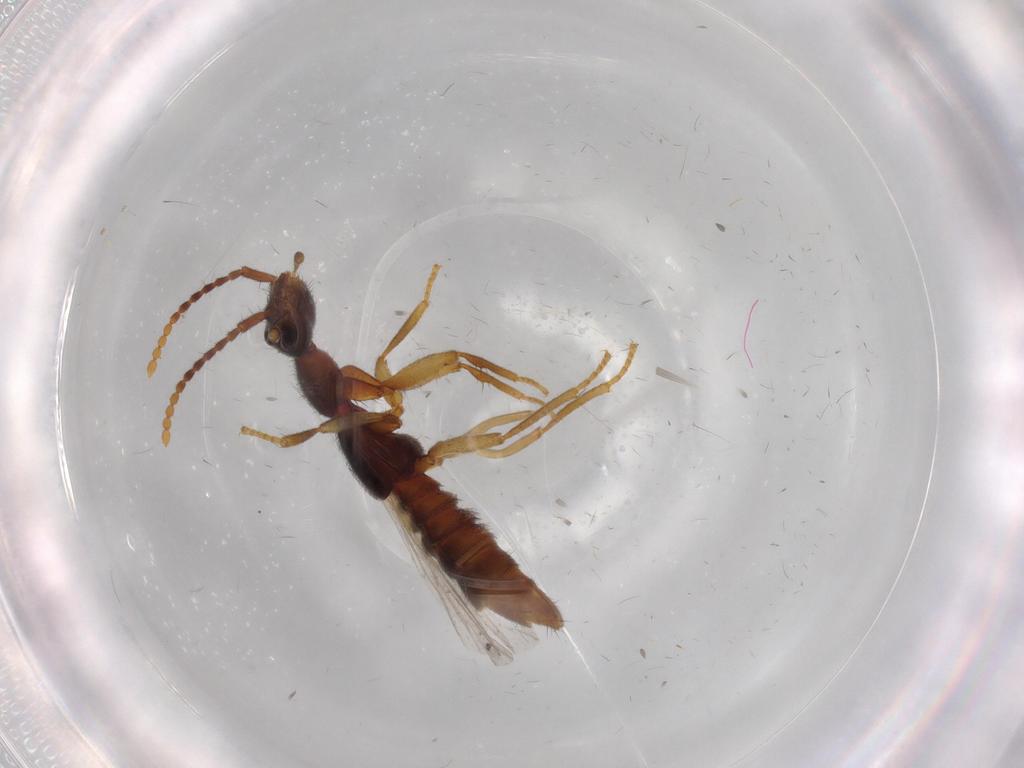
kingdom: Animalia
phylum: Arthropoda
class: Insecta
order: Coleoptera
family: Staphylinidae
